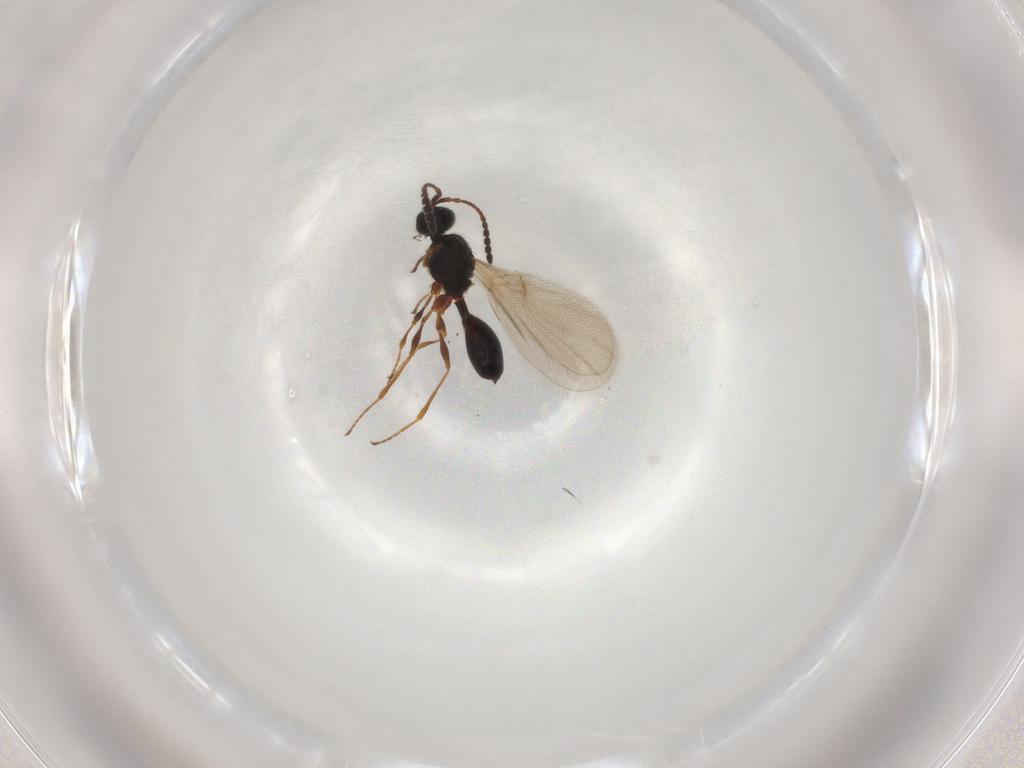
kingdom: Animalia
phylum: Arthropoda
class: Insecta
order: Hymenoptera
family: Diapriidae
